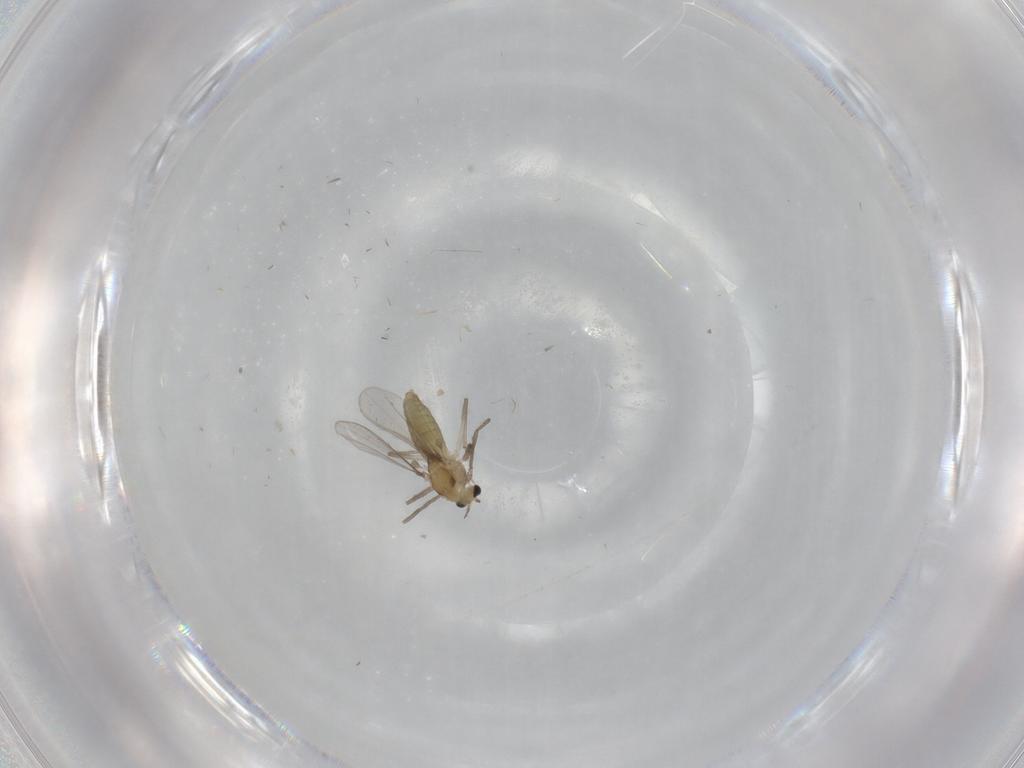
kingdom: Animalia
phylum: Arthropoda
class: Insecta
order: Diptera
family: Chironomidae
